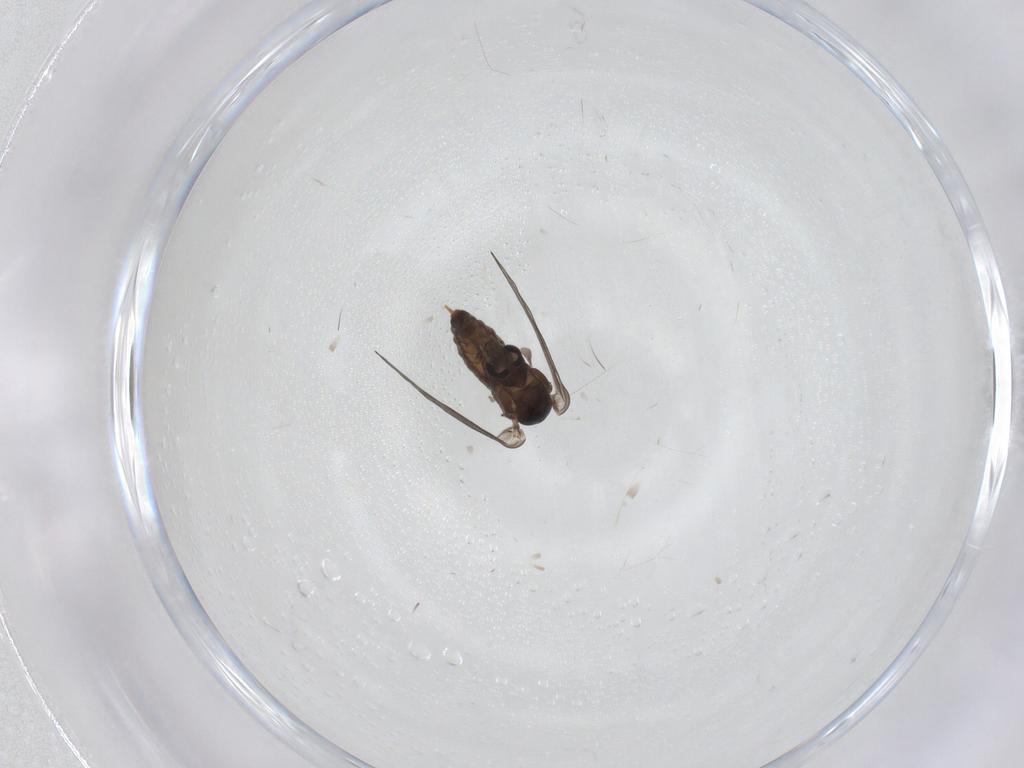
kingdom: Animalia
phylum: Arthropoda
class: Insecta
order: Diptera
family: Psychodidae
